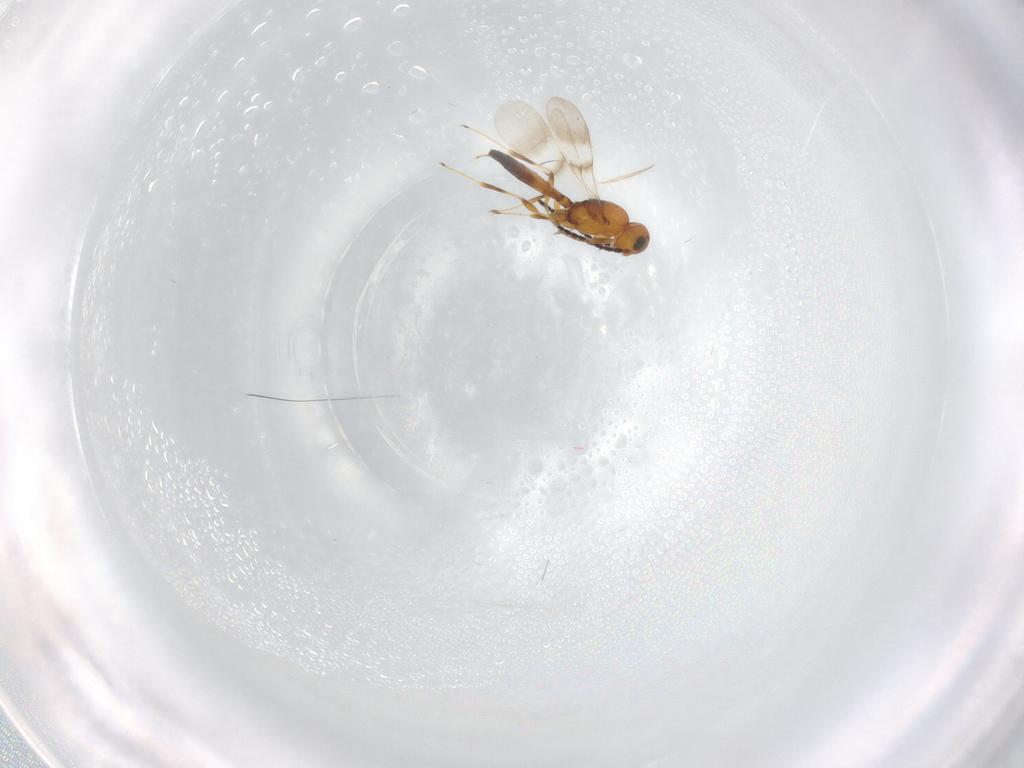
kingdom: Animalia
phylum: Arthropoda
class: Insecta
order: Hymenoptera
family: Scelionidae
